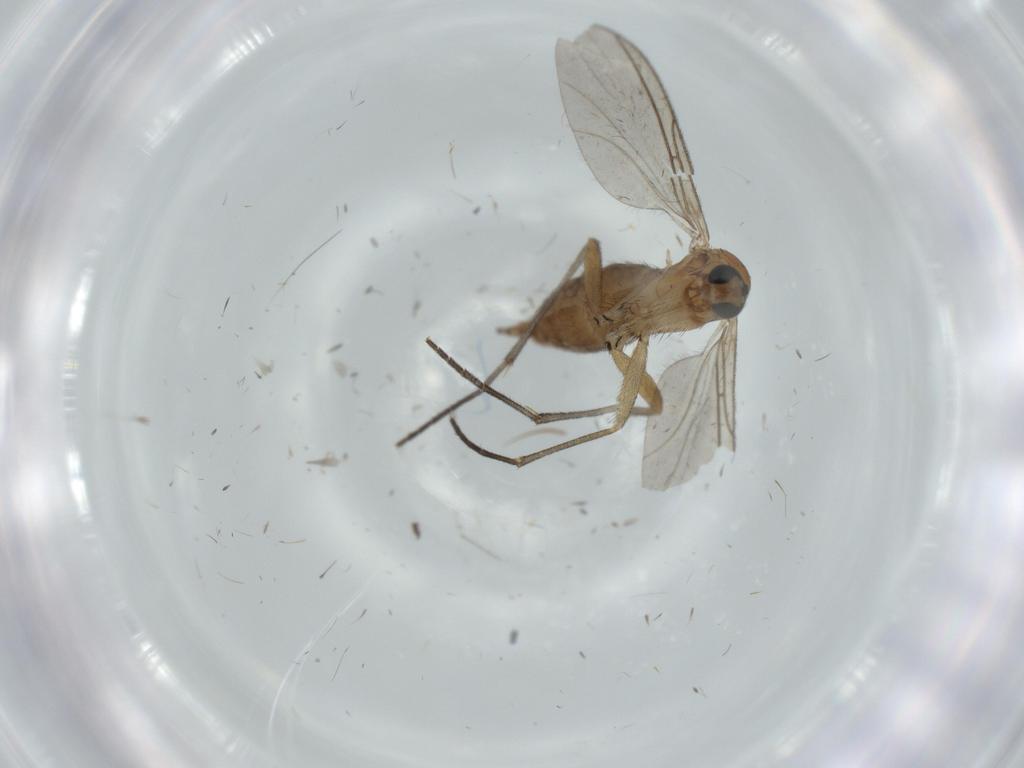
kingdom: Animalia
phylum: Arthropoda
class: Insecta
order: Diptera
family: Sciaridae
